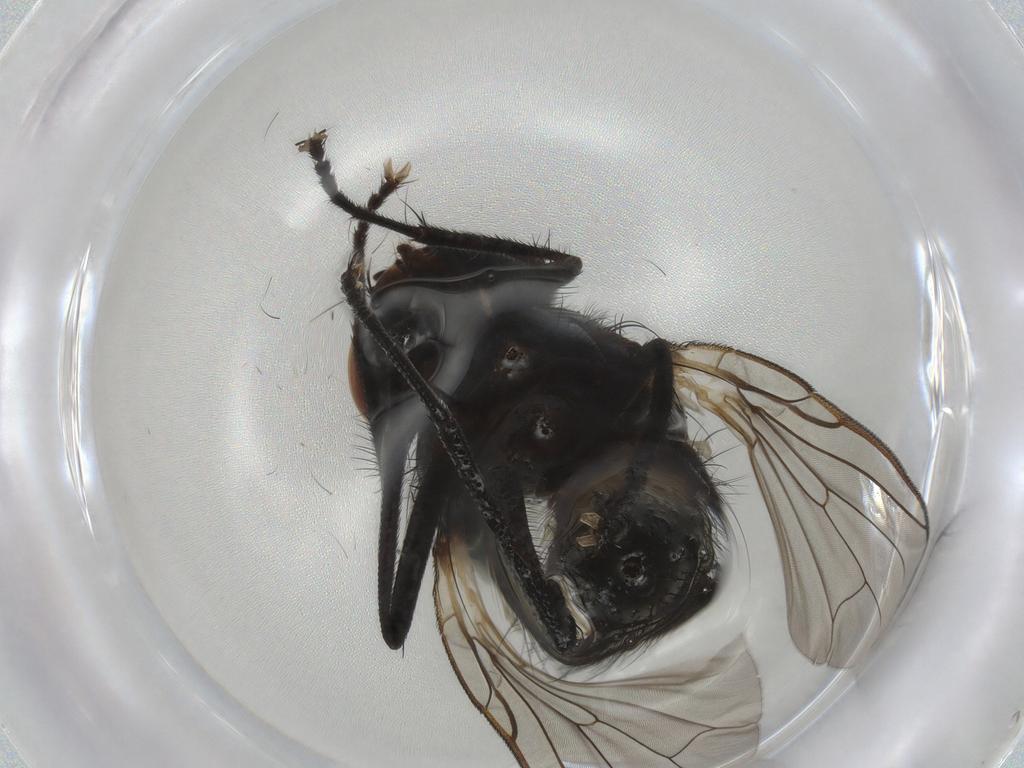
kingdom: Animalia
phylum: Arthropoda
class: Insecta
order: Diptera
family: Anthomyiidae
